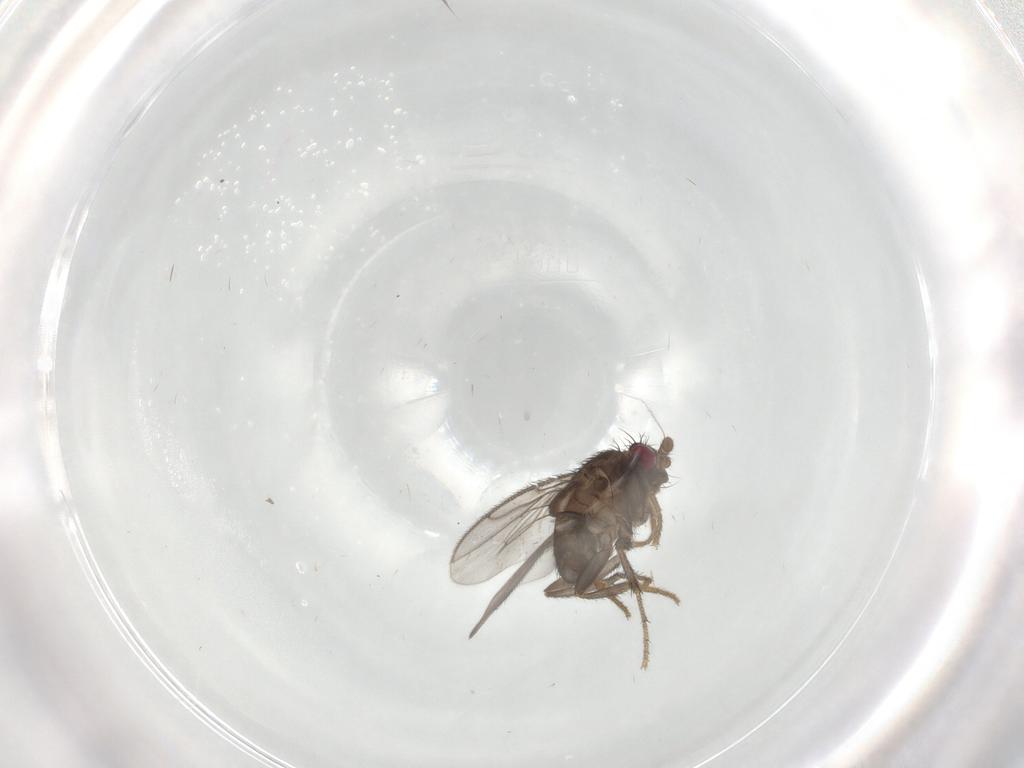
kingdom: Animalia
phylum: Arthropoda
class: Insecta
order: Diptera
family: Sphaeroceridae
